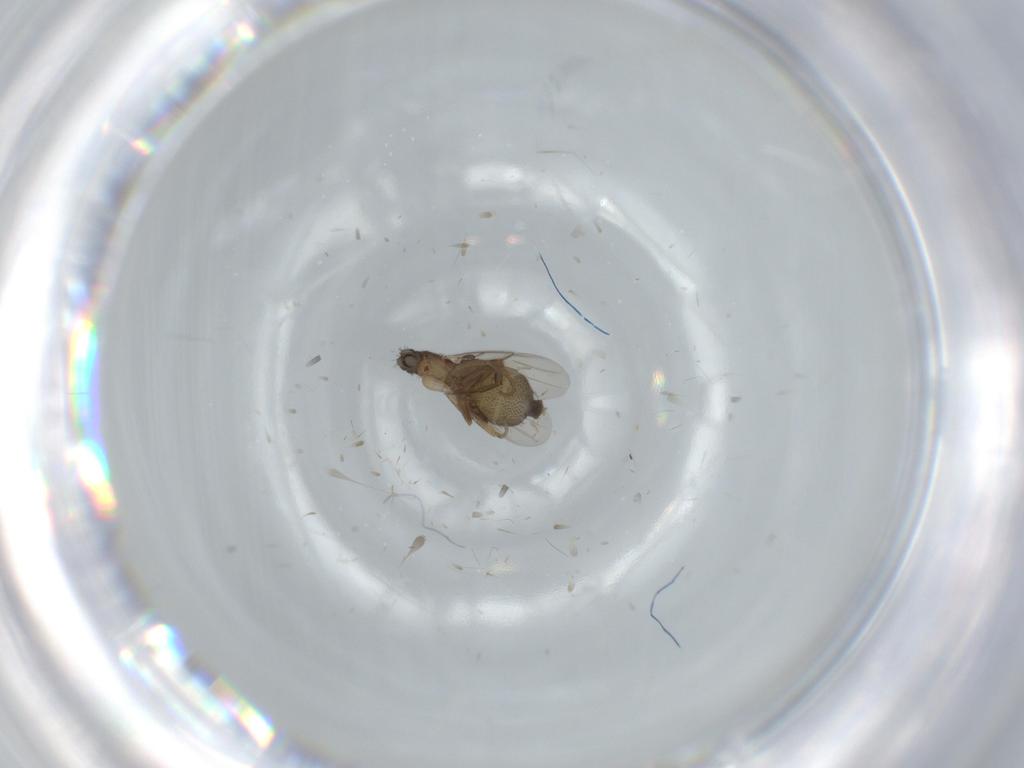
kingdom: Animalia
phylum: Arthropoda
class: Insecta
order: Diptera
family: Phoridae
